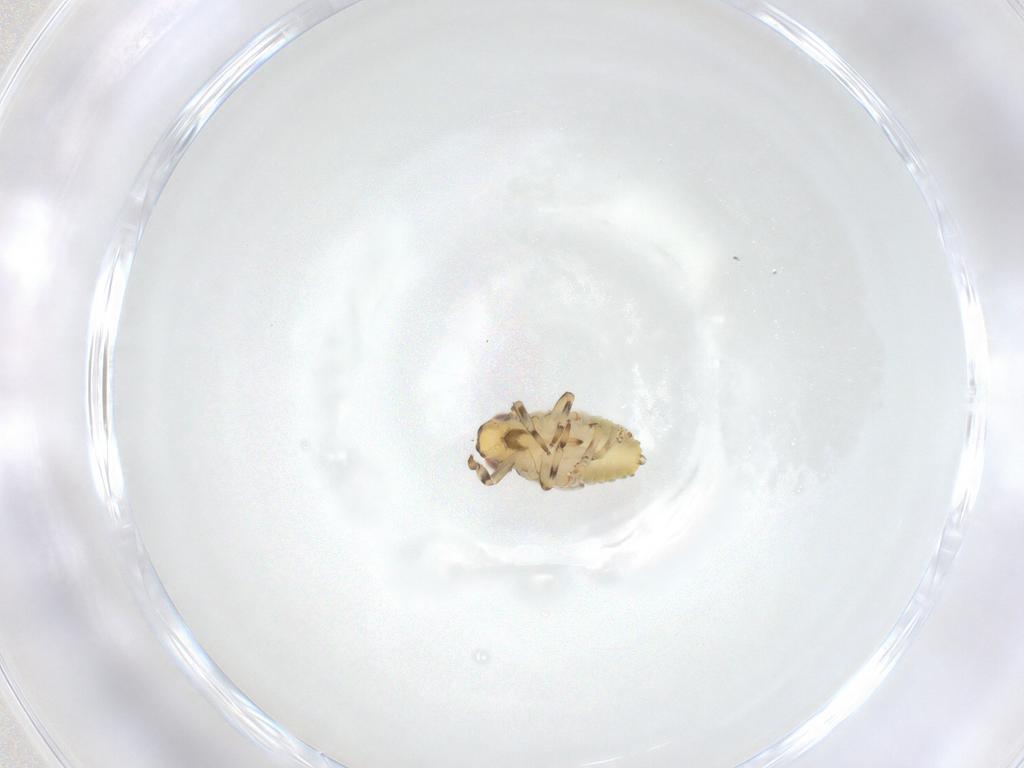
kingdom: Animalia
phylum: Arthropoda
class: Insecta
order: Hemiptera
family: Issidae
